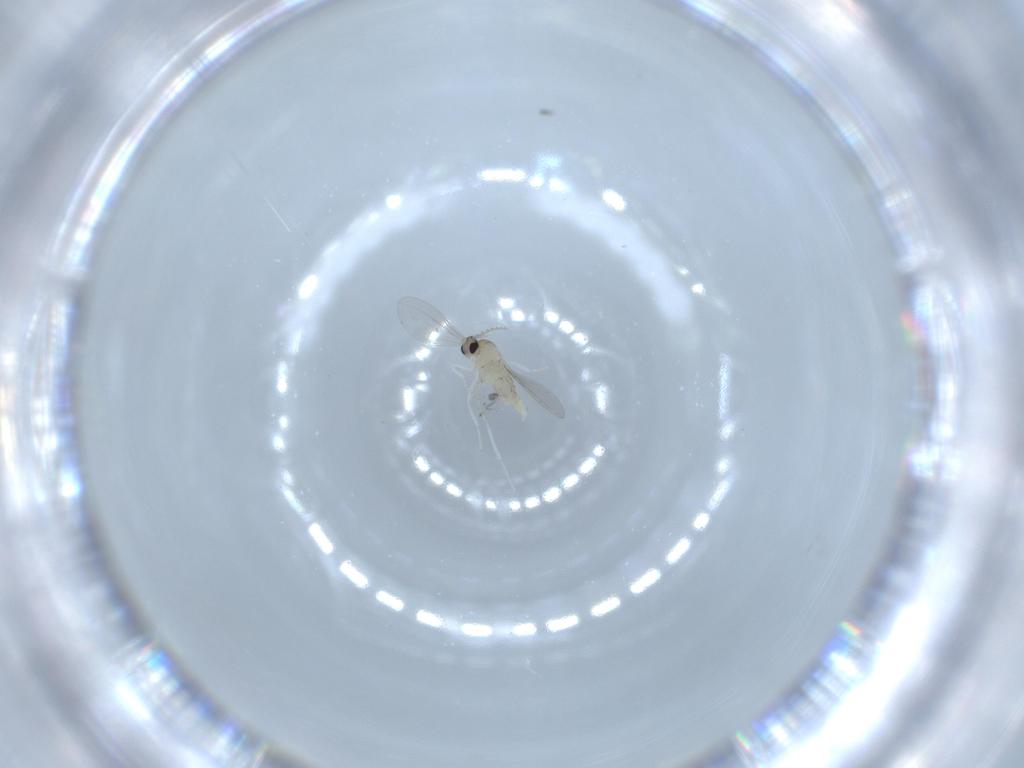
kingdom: Animalia
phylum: Arthropoda
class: Insecta
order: Diptera
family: Cecidomyiidae
